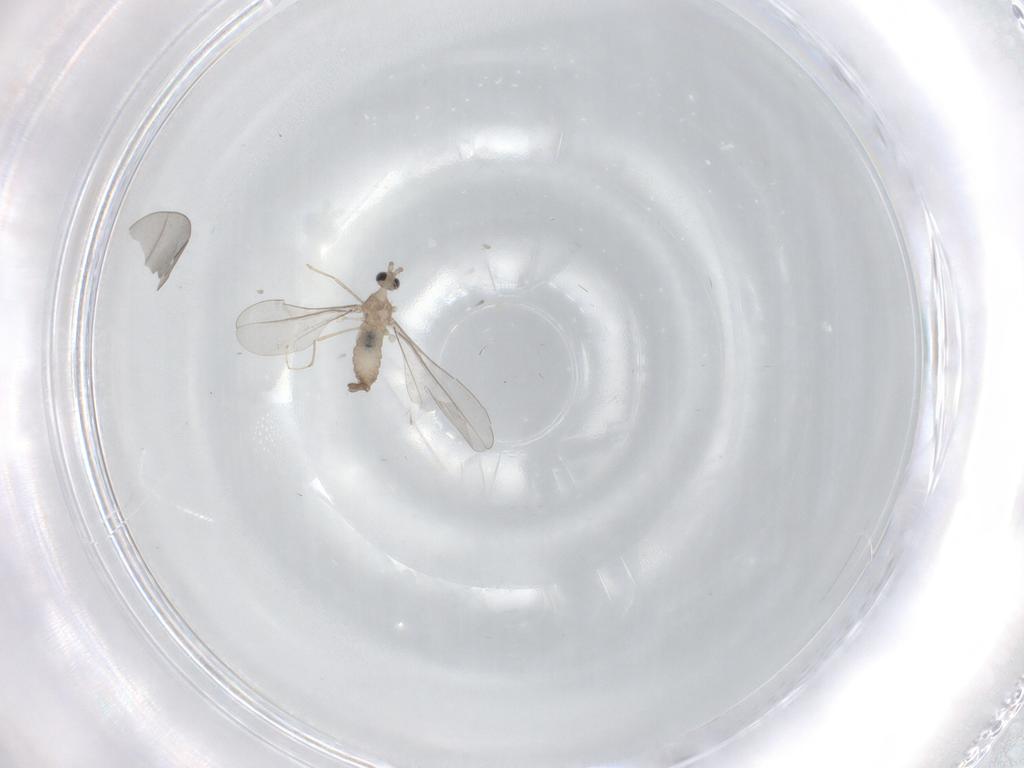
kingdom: Animalia
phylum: Arthropoda
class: Insecta
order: Diptera
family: Cecidomyiidae
